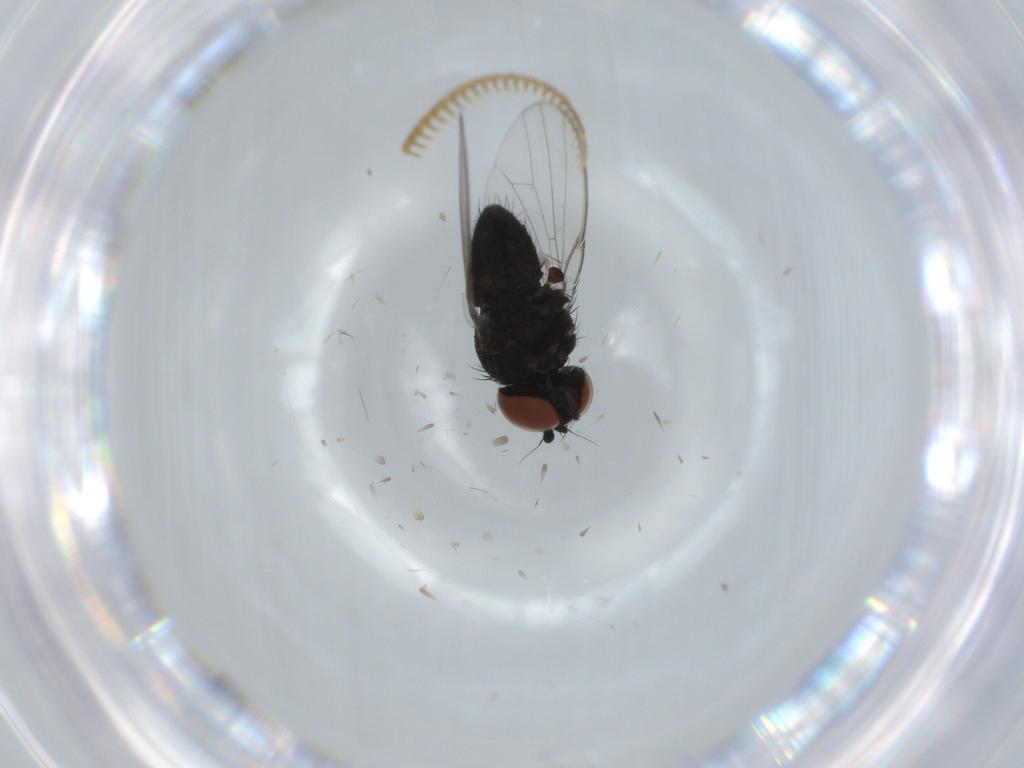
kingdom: Animalia
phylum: Arthropoda
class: Insecta
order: Diptera
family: Milichiidae
